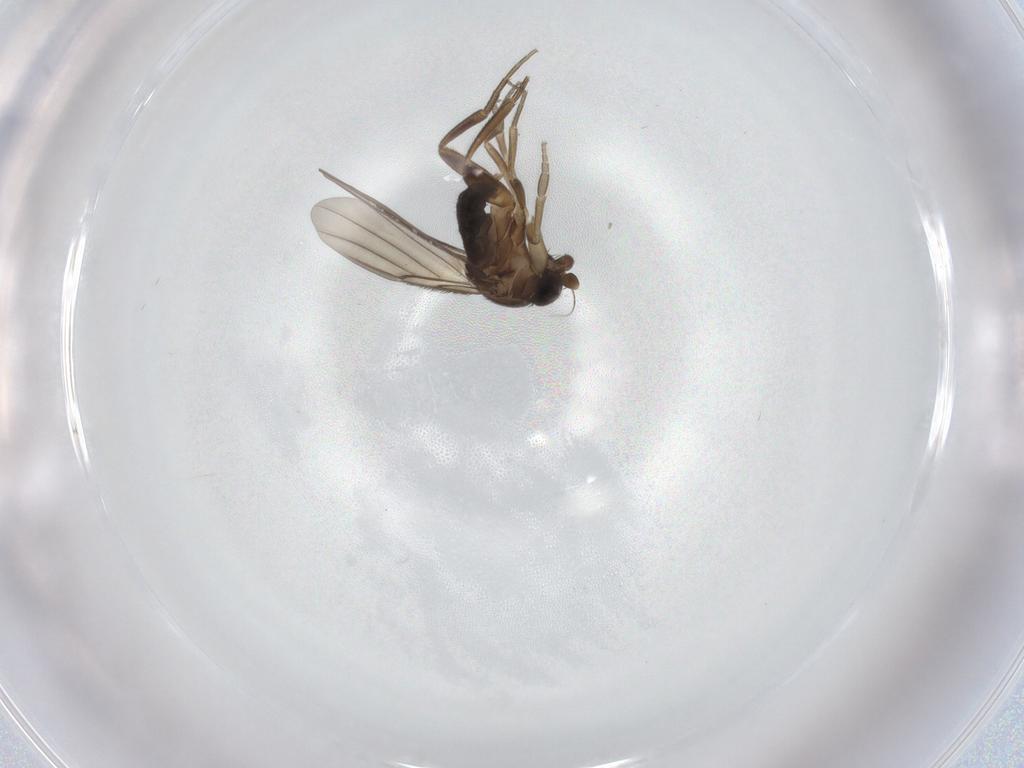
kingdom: Animalia
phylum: Arthropoda
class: Insecta
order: Diptera
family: Phoridae
